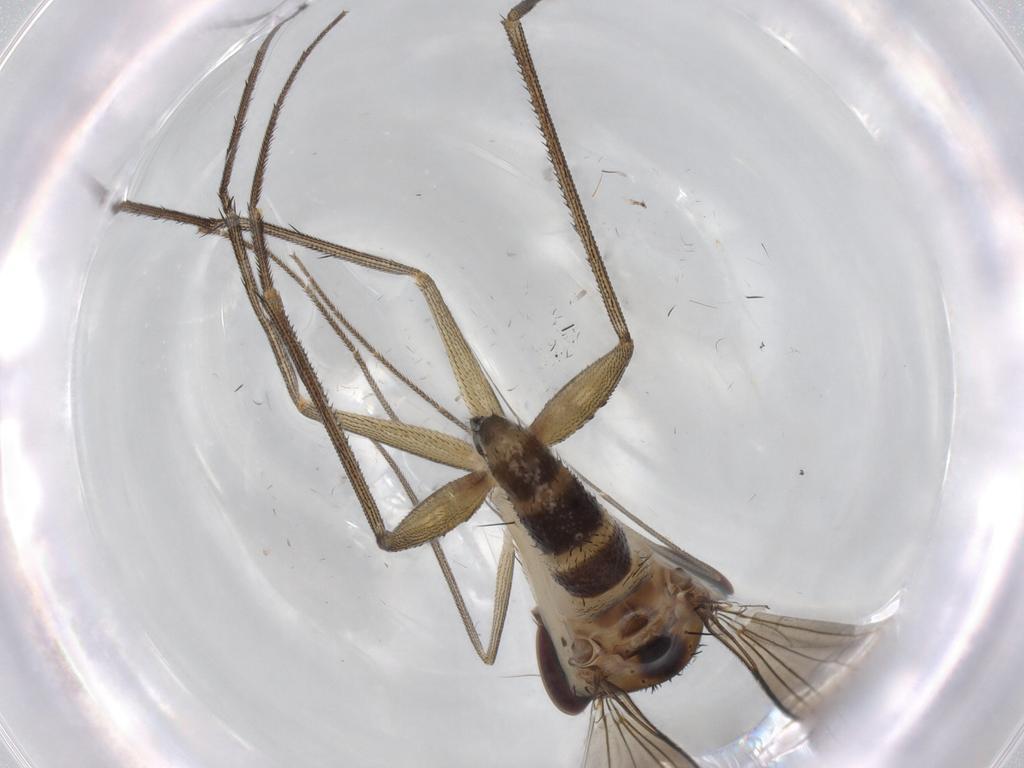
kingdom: Animalia
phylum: Arthropoda
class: Insecta
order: Diptera
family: Dolichopodidae
